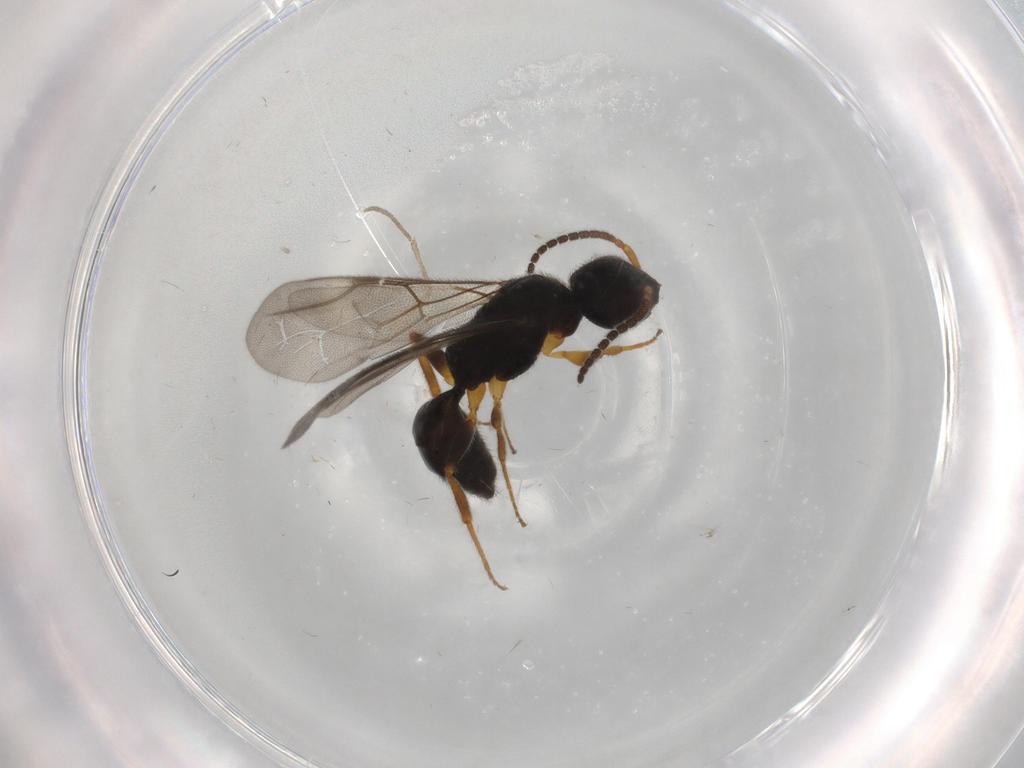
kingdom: Animalia
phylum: Arthropoda
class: Insecta
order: Hymenoptera
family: Bethylidae
